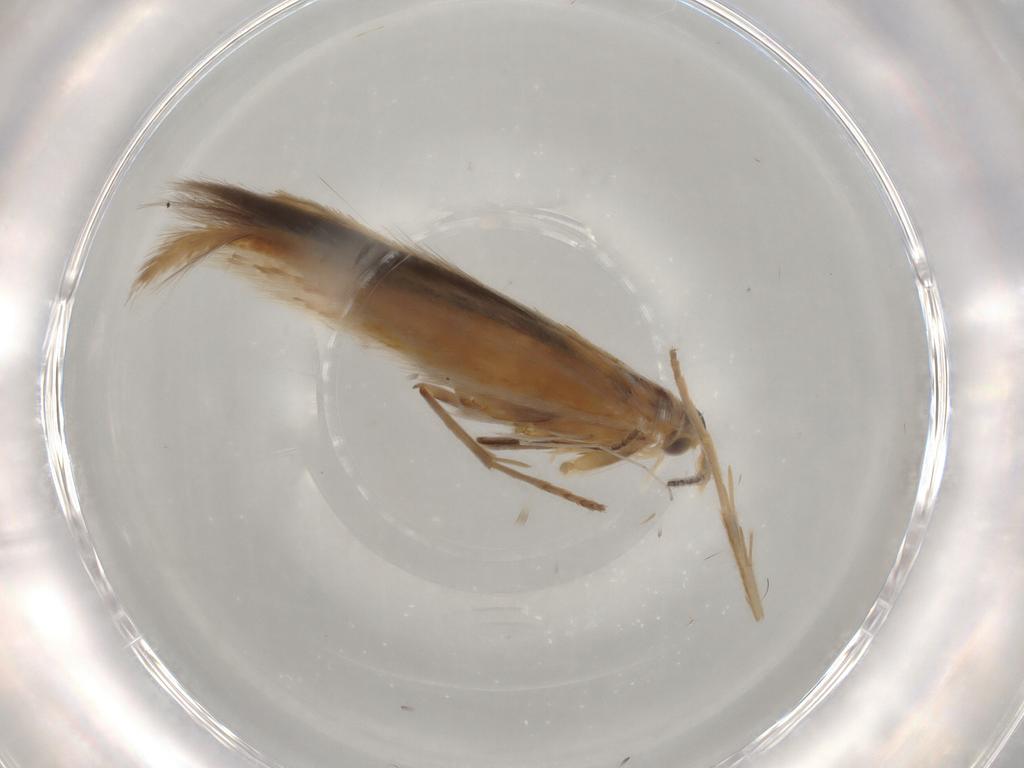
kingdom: Animalia
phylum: Arthropoda
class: Insecta
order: Lepidoptera
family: Coleophoridae
